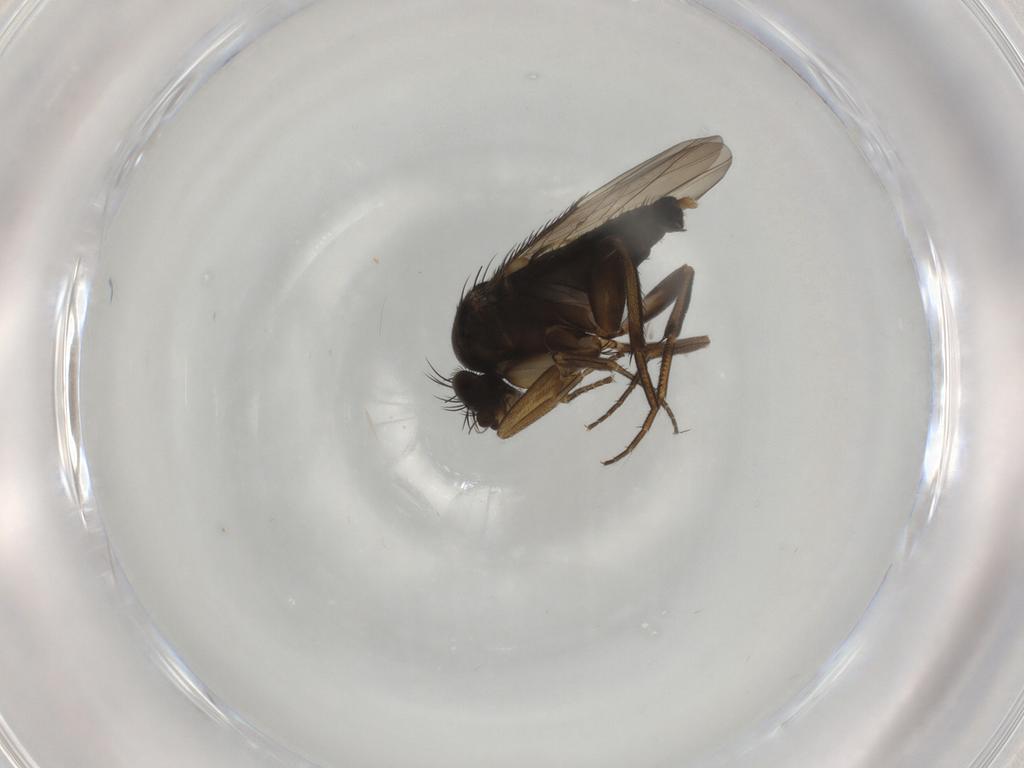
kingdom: Animalia
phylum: Arthropoda
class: Insecta
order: Diptera
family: Phoridae
